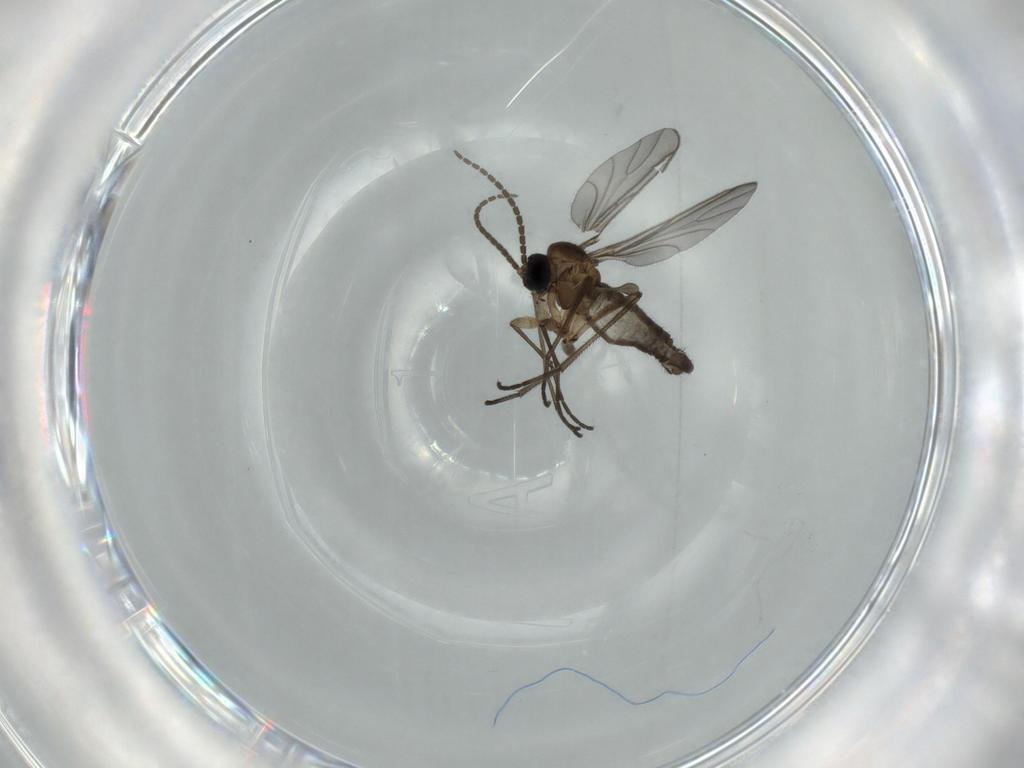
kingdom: Animalia
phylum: Arthropoda
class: Insecta
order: Diptera
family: Sciaridae
